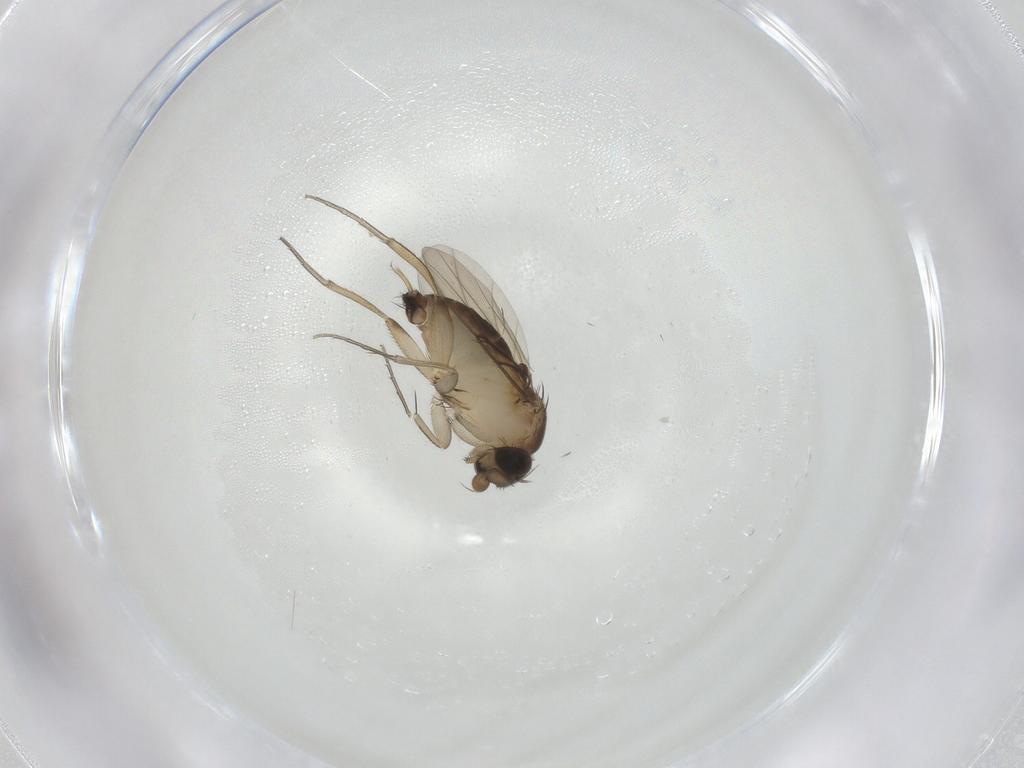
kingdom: Animalia
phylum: Arthropoda
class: Insecta
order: Diptera
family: Phoridae
